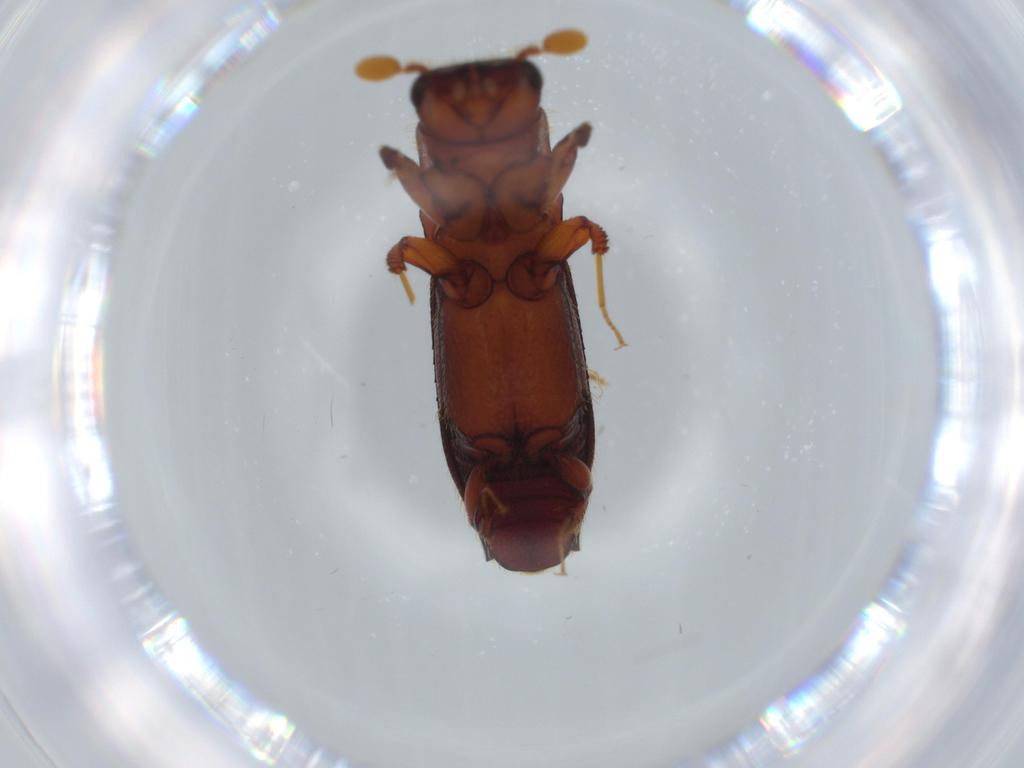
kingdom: Animalia
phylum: Arthropoda
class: Insecta
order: Coleoptera
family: Curculionidae
